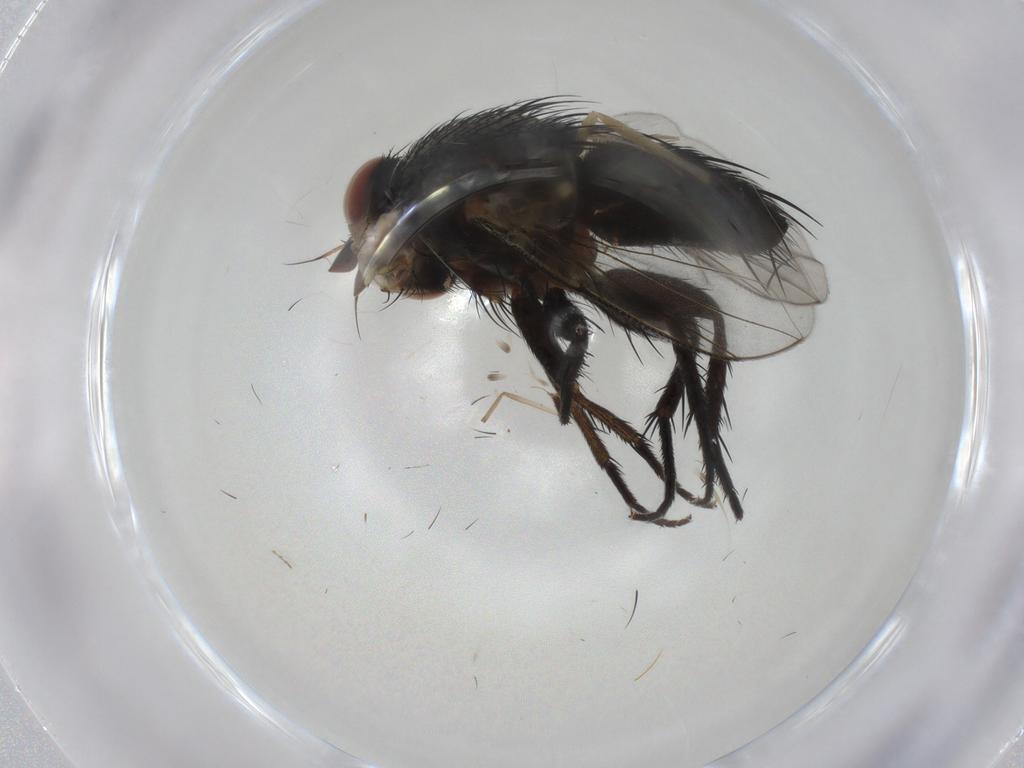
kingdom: Animalia
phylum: Arthropoda
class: Insecta
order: Diptera
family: Tachinidae
